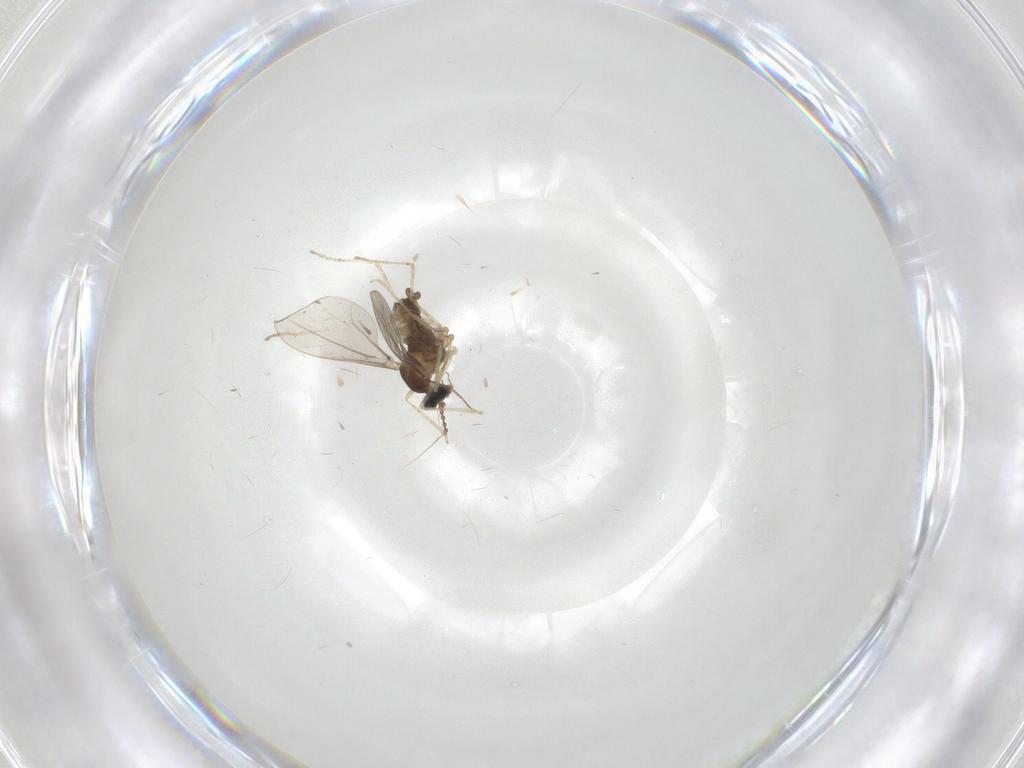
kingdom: Animalia
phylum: Arthropoda
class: Insecta
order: Diptera
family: Cecidomyiidae
